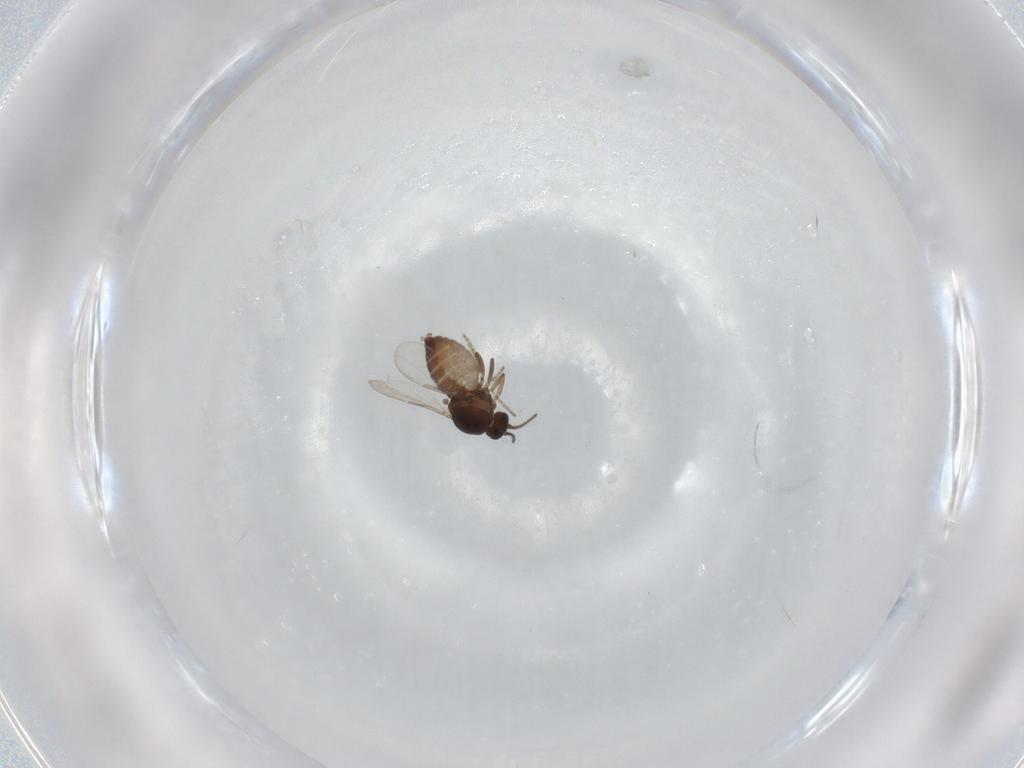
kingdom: Animalia
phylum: Arthropoda
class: Insecta
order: Diptera
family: Ceratopogonidae
